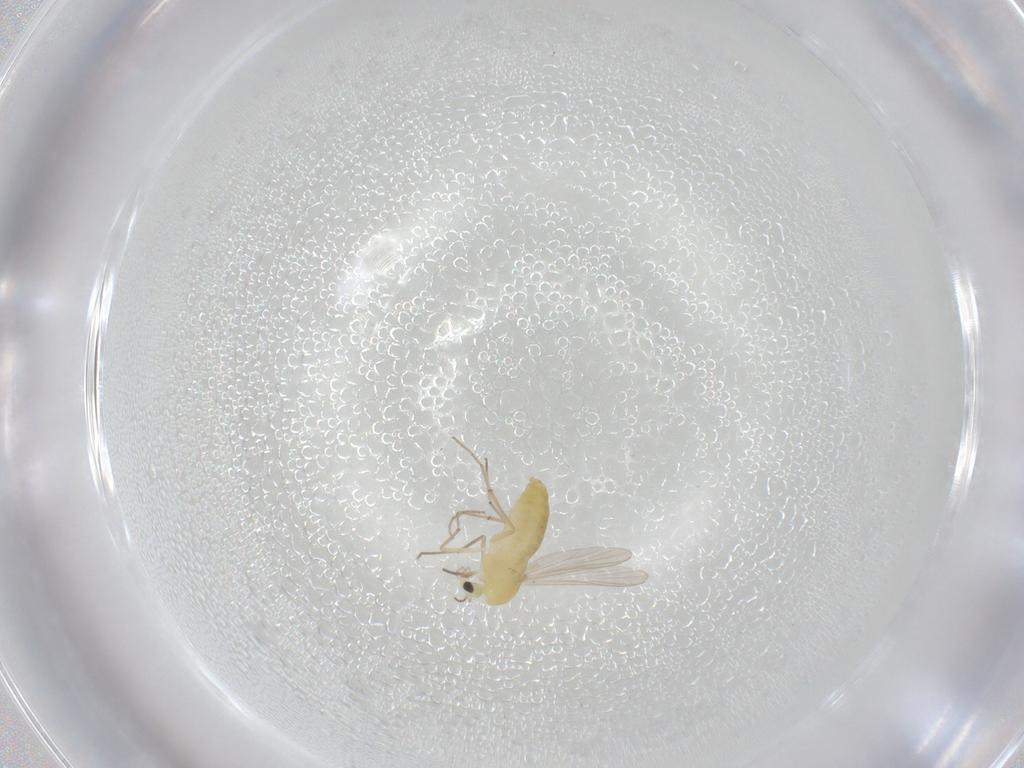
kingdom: Animalia
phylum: Arthropoda
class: Insecta
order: Diptera
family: Chironomidae
